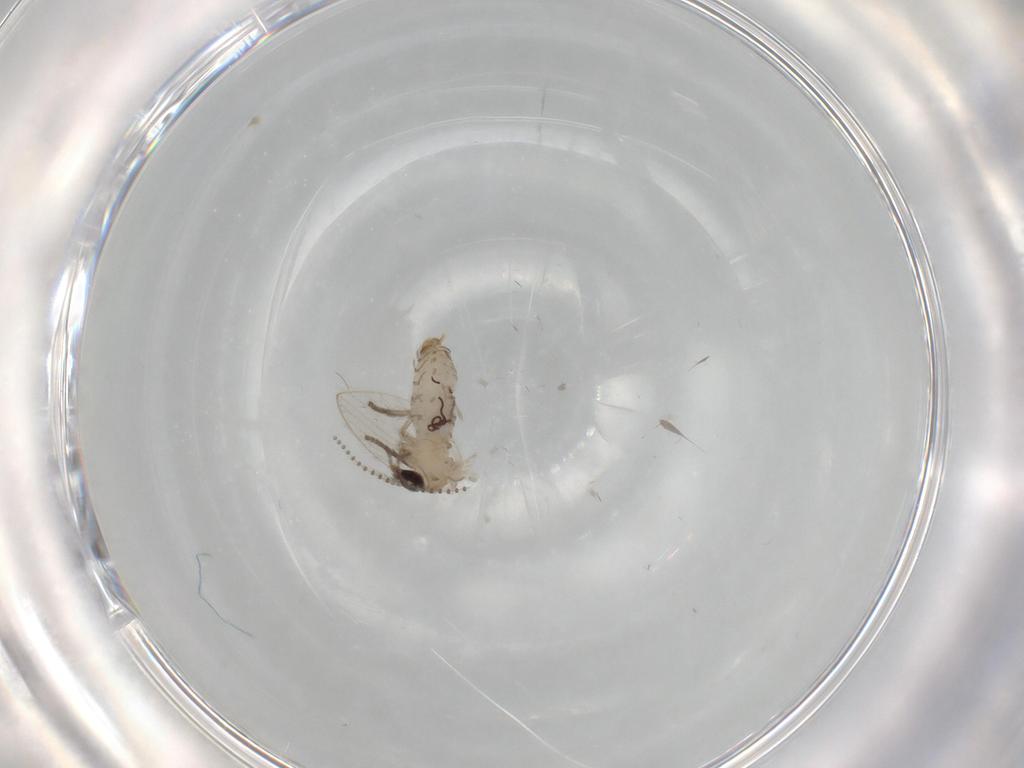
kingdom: Animalia
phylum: Arthropoda
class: Insecta
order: Diptera
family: Psychodidae
